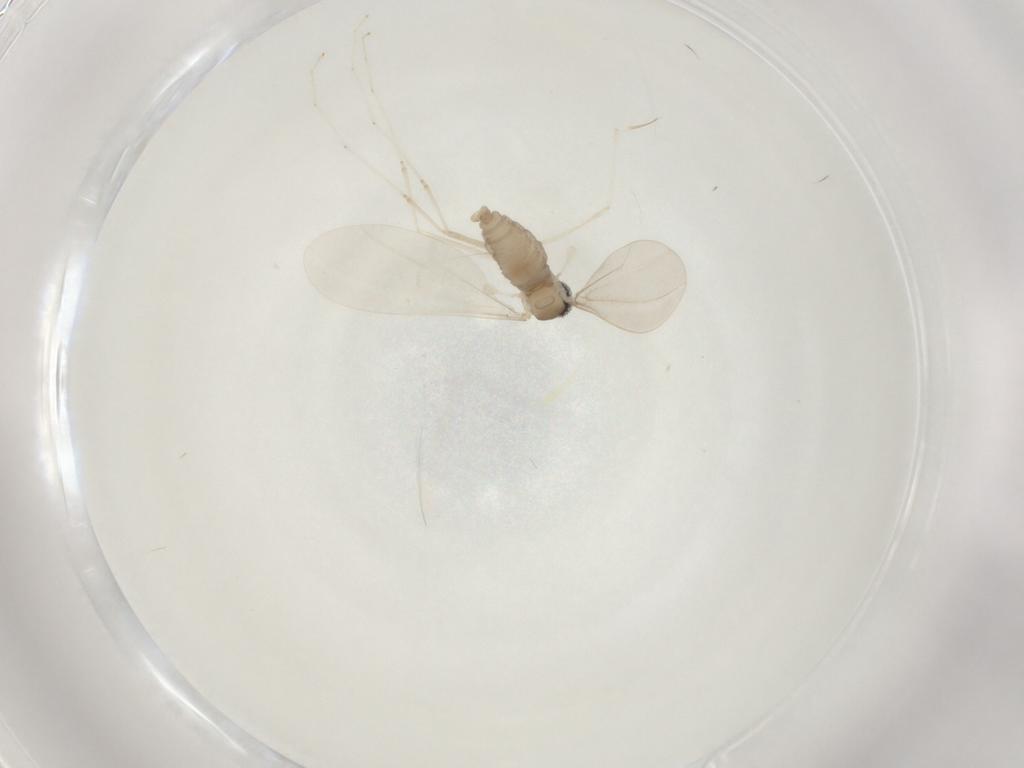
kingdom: Animalia
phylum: Arthropoda
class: Insecta
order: Diptera
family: Cecidomyiidae
